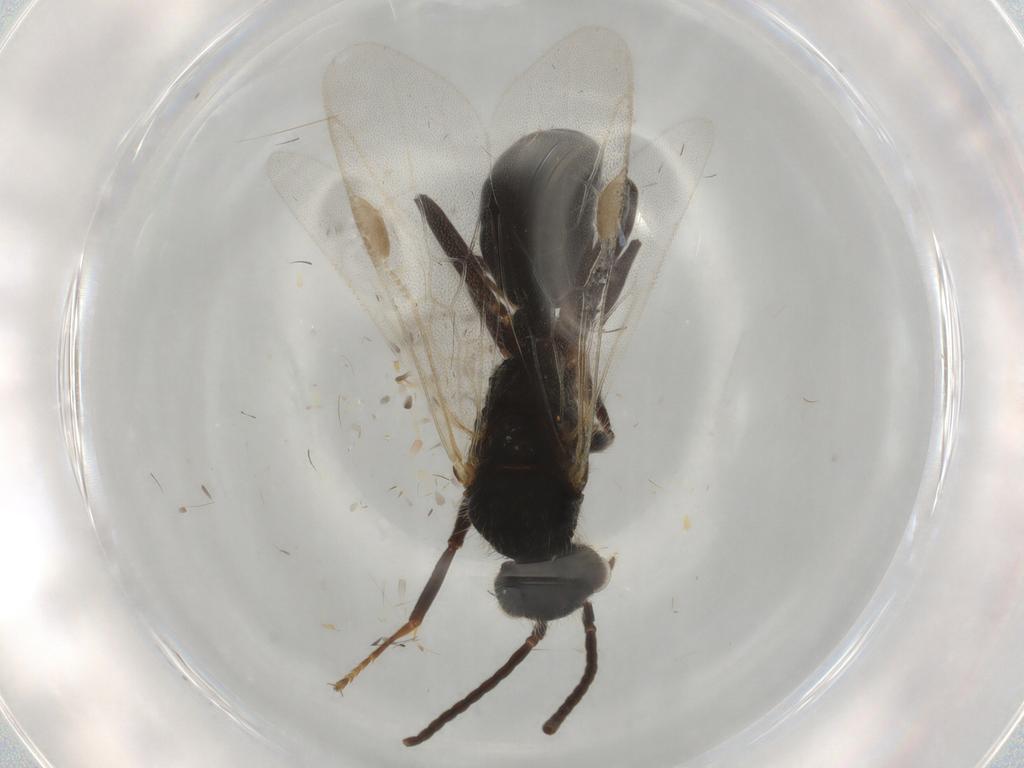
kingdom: Animalia
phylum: Arthropoda
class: Insecta
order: Hymenoptera
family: Formicidae
